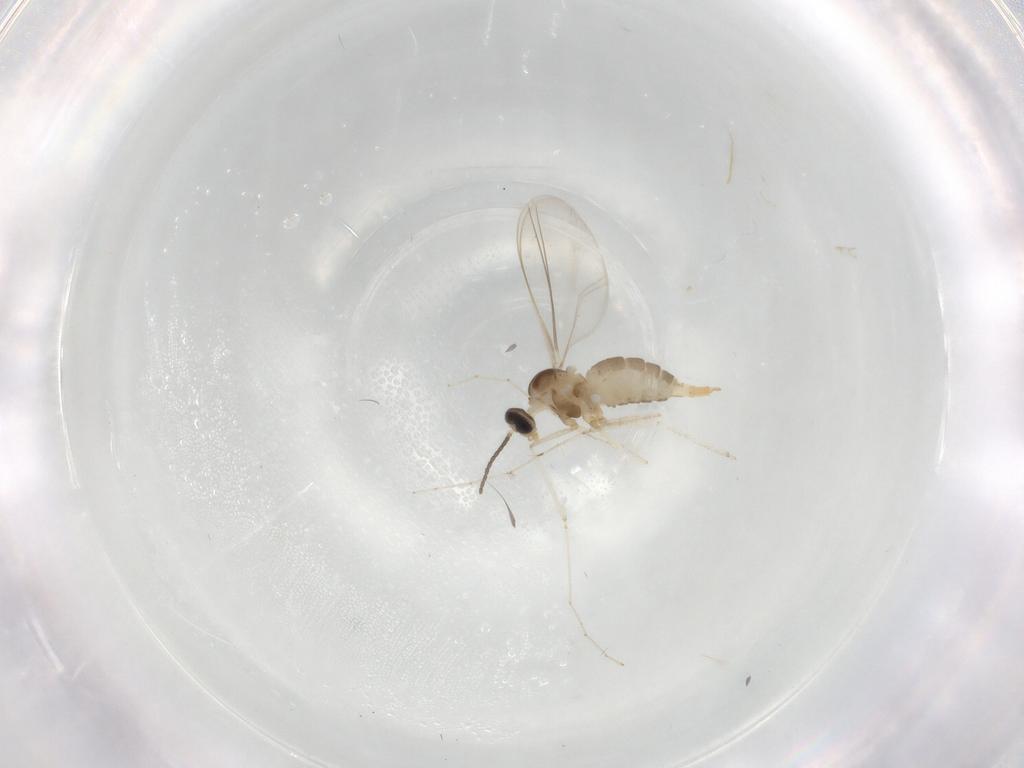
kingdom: Animalia
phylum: Arthropoda
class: Insecta
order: Diptera
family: Cecidomyiidae
